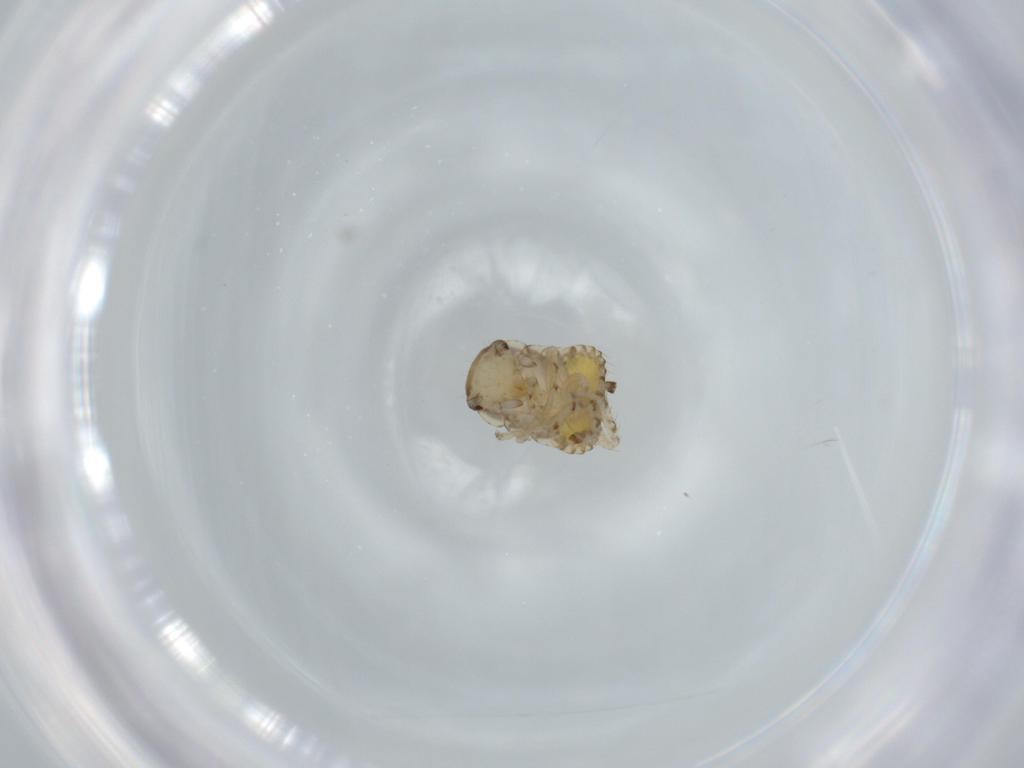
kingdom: Animalia
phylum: Arthropoda
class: Insecta
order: Blattodea
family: Ectobiidae
